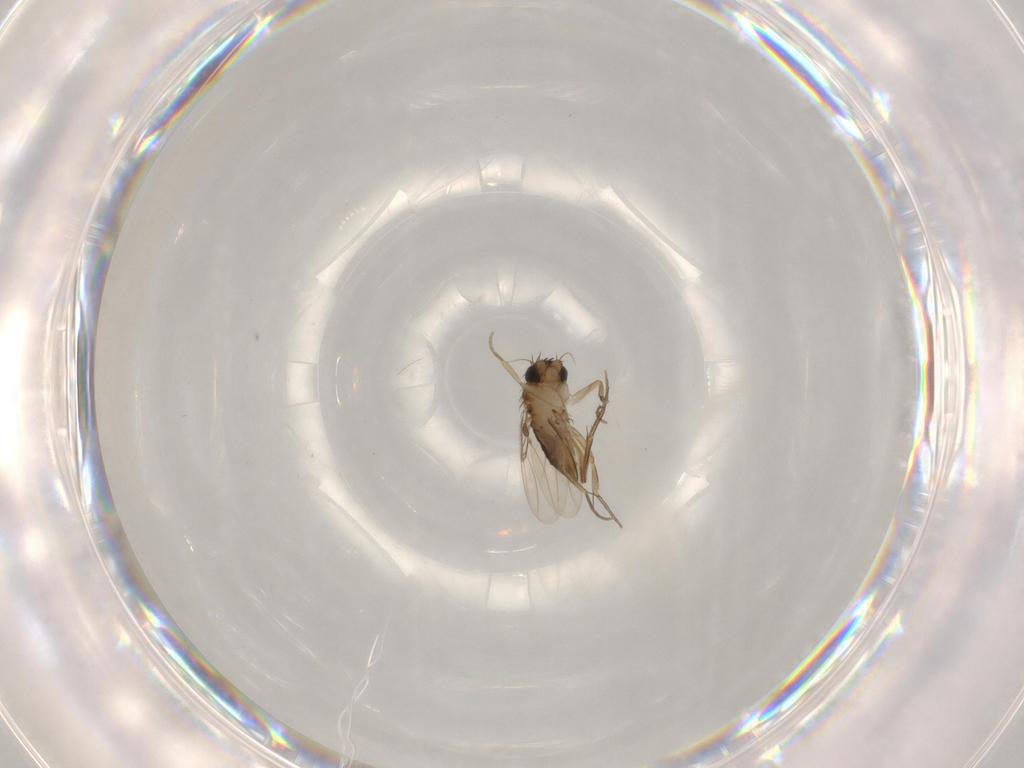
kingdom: Animalia
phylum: Arthropoda
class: Insecta
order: Diptera
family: Phoridae
